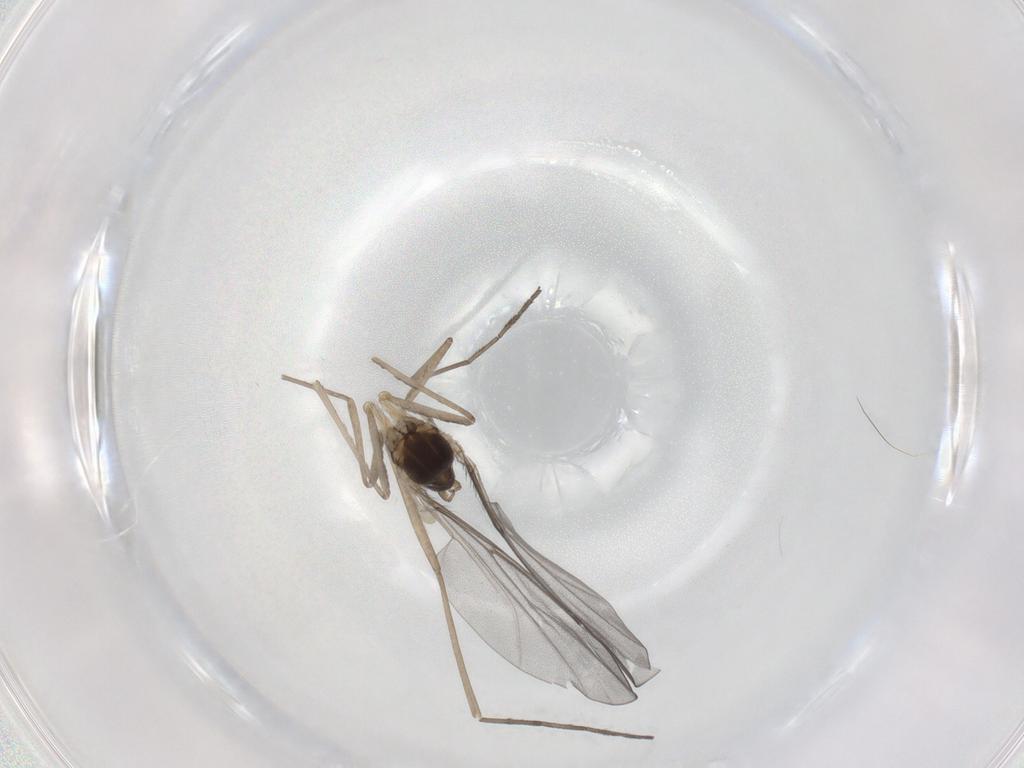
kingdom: Animalia
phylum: Arthropoda
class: Insecta
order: Diptera
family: Cecidomyiidae
